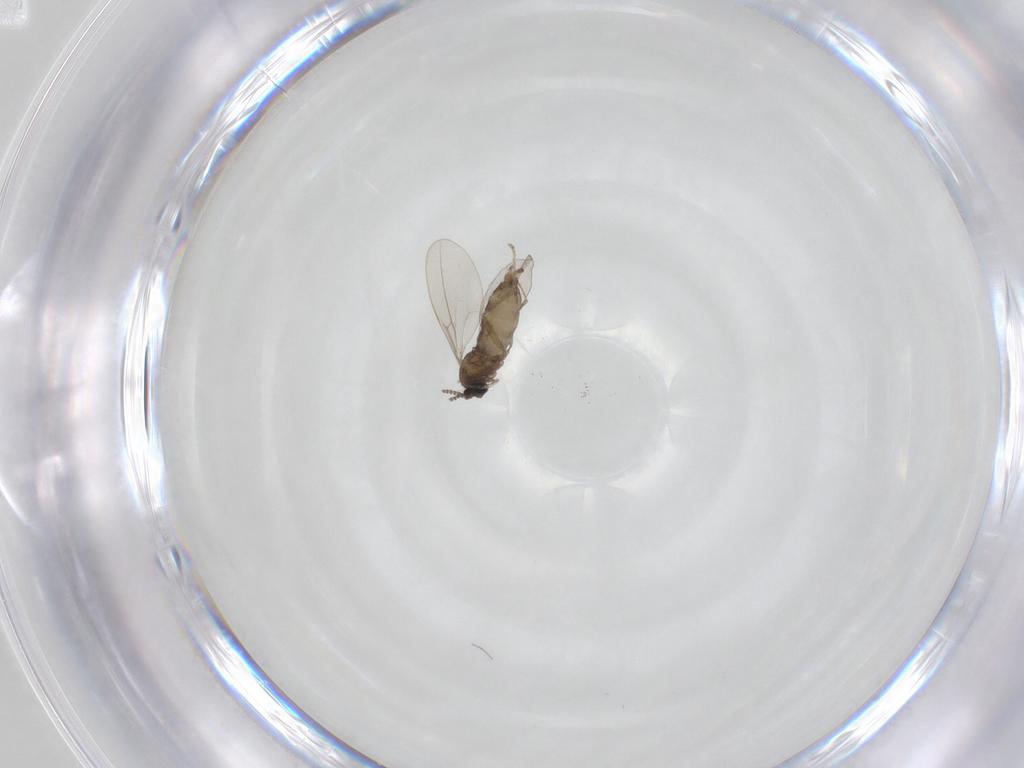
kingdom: Animalia
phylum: Arthropoda
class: Insecta
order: Diptera
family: Cecidomyiidae
